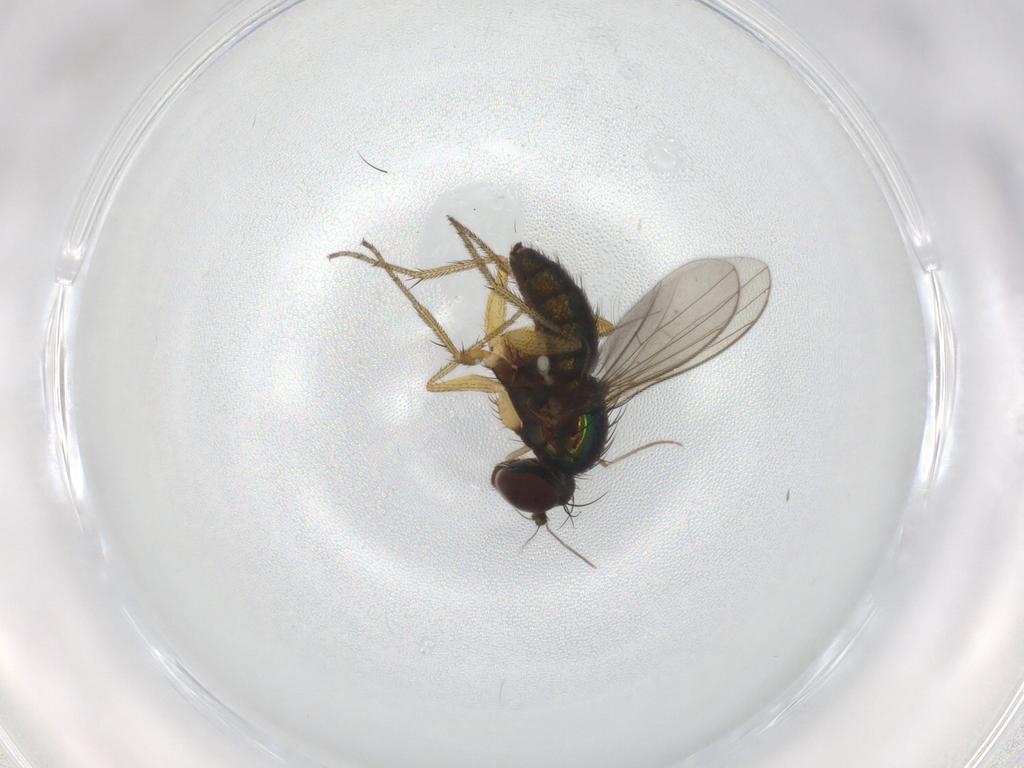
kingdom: Animalia
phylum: Arthropoda
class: Insecta
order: Diptera
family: Chironomidae
